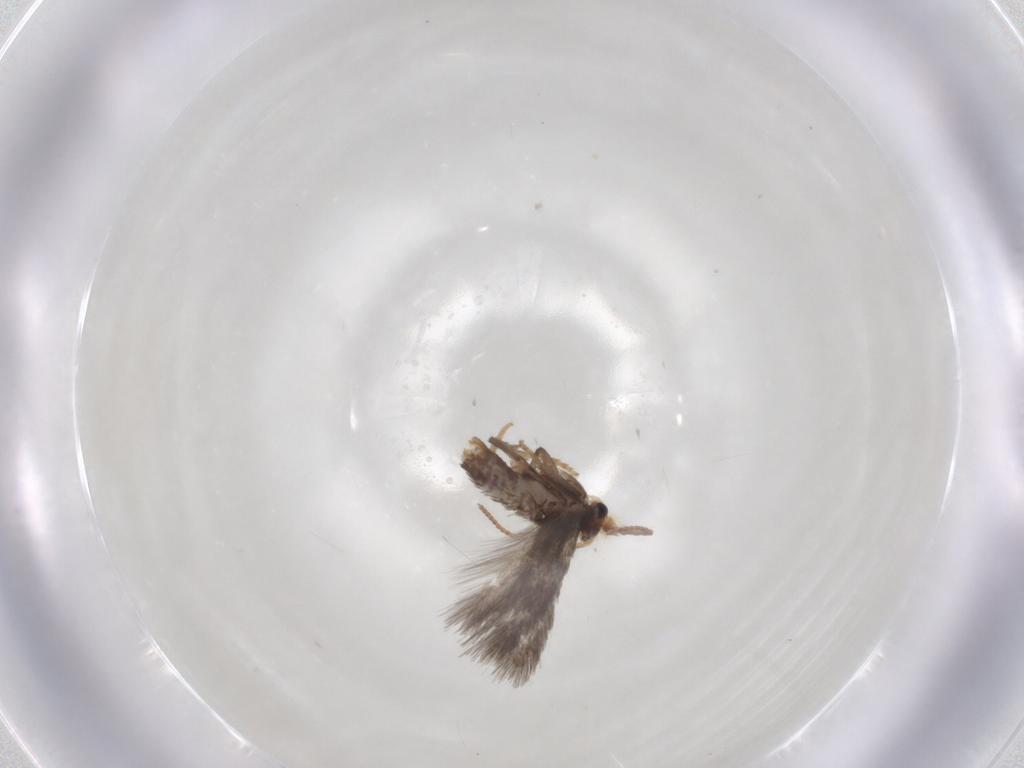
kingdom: Animalia
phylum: Arthropoda
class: Insecta
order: Lepidoptera
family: Nepticulidae
